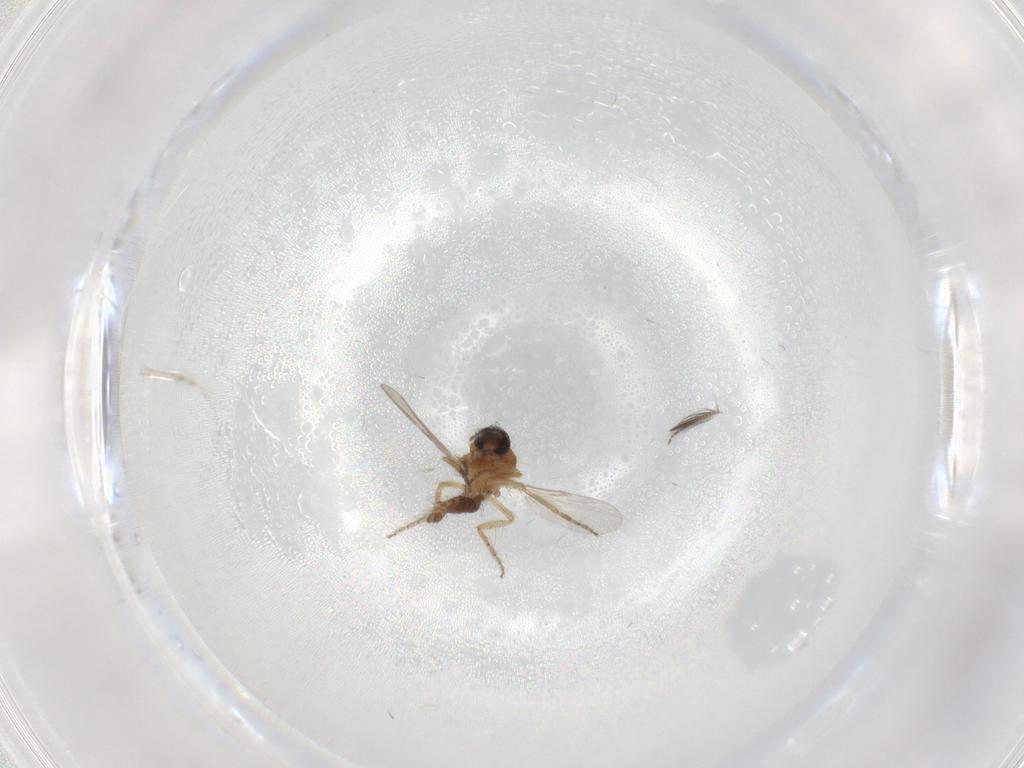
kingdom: Animalia
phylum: Arthropoda
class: Insecta
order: Diptera
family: Ceratopogonidae
